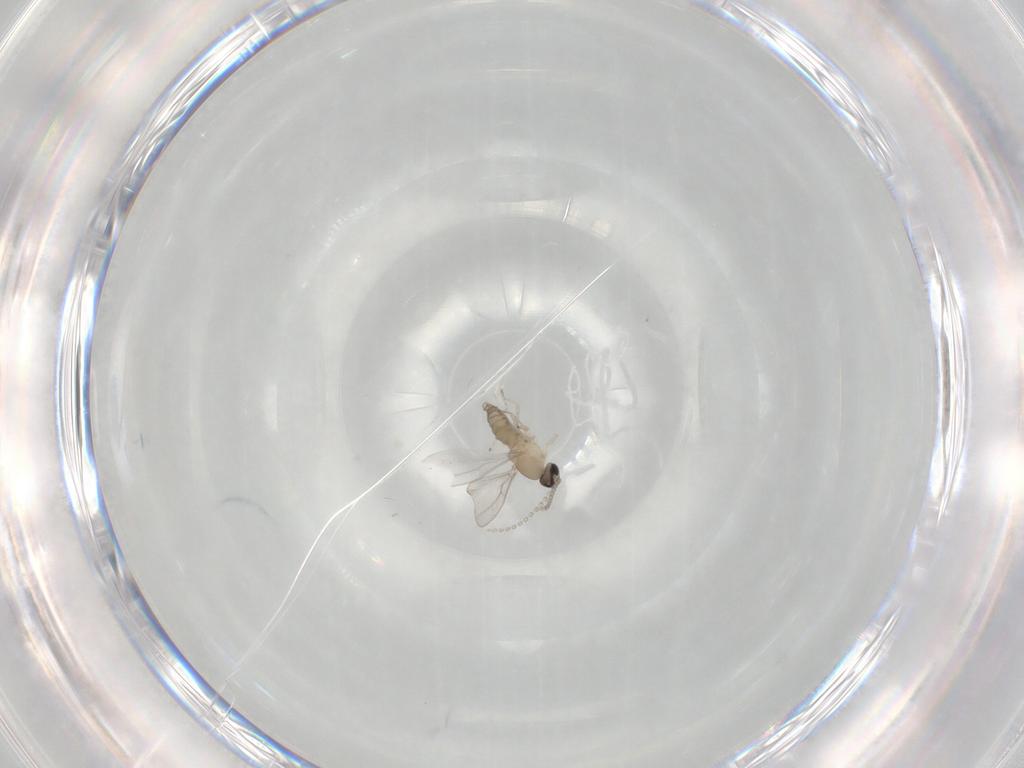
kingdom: Animalia
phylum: Arthropoda
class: Insecta
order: Diptera
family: Cecidomyiidae
